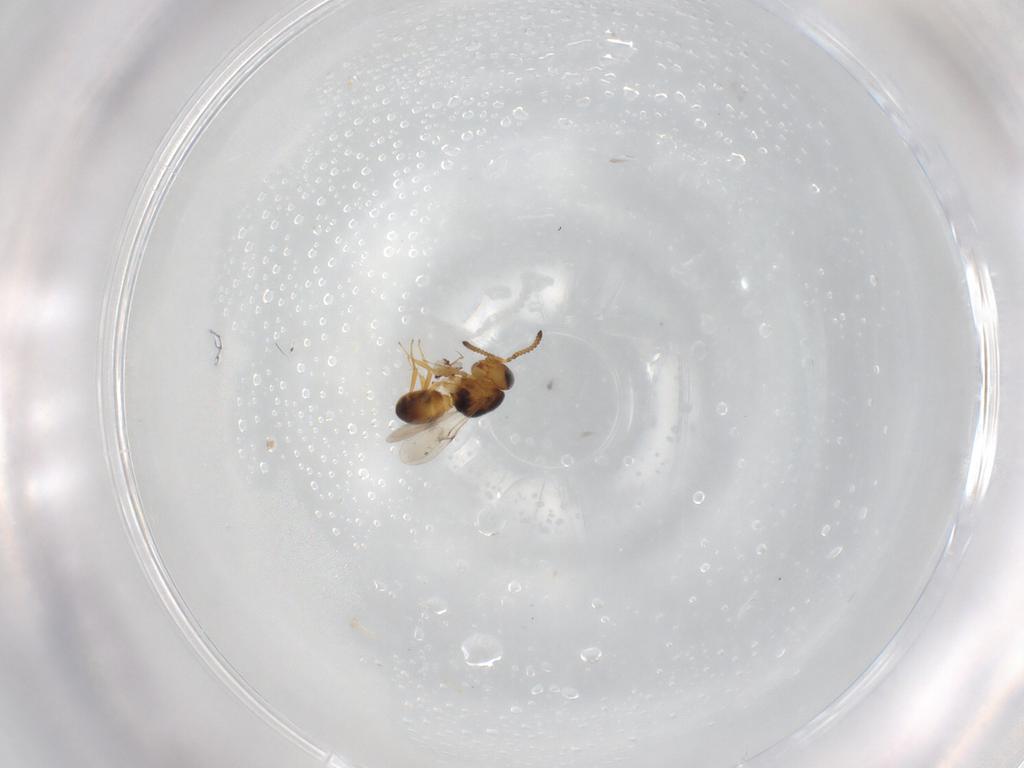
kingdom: Animalia
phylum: Arthropoda
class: Insecta
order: Hymenoptera
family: Scelionidae
